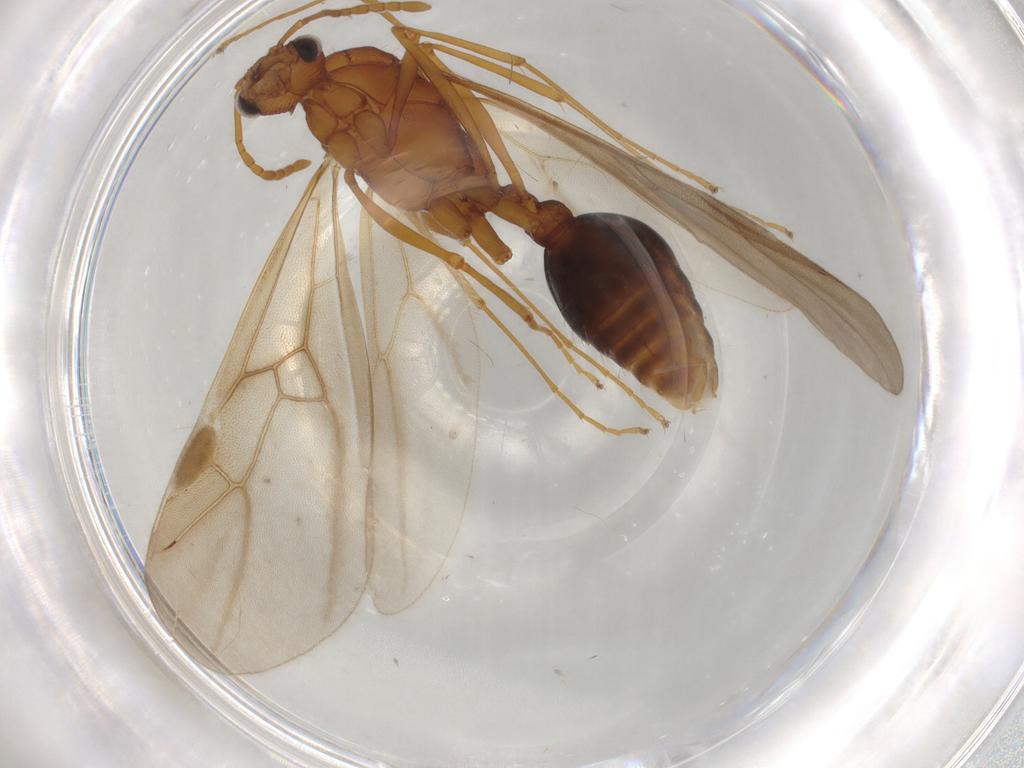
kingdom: Animalia
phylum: Arthropoda
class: Insecta
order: Hymenoptera
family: Formicidae
